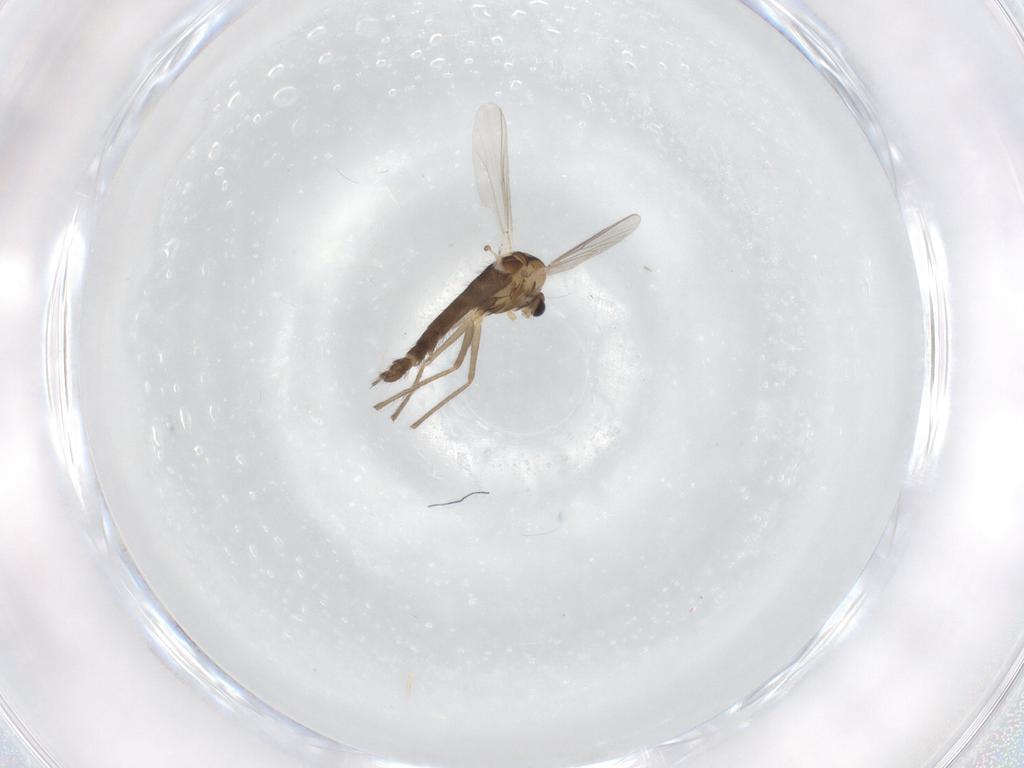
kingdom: Animalia
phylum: Arthropoda
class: Insecta
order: Diptera
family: Chironomidae
